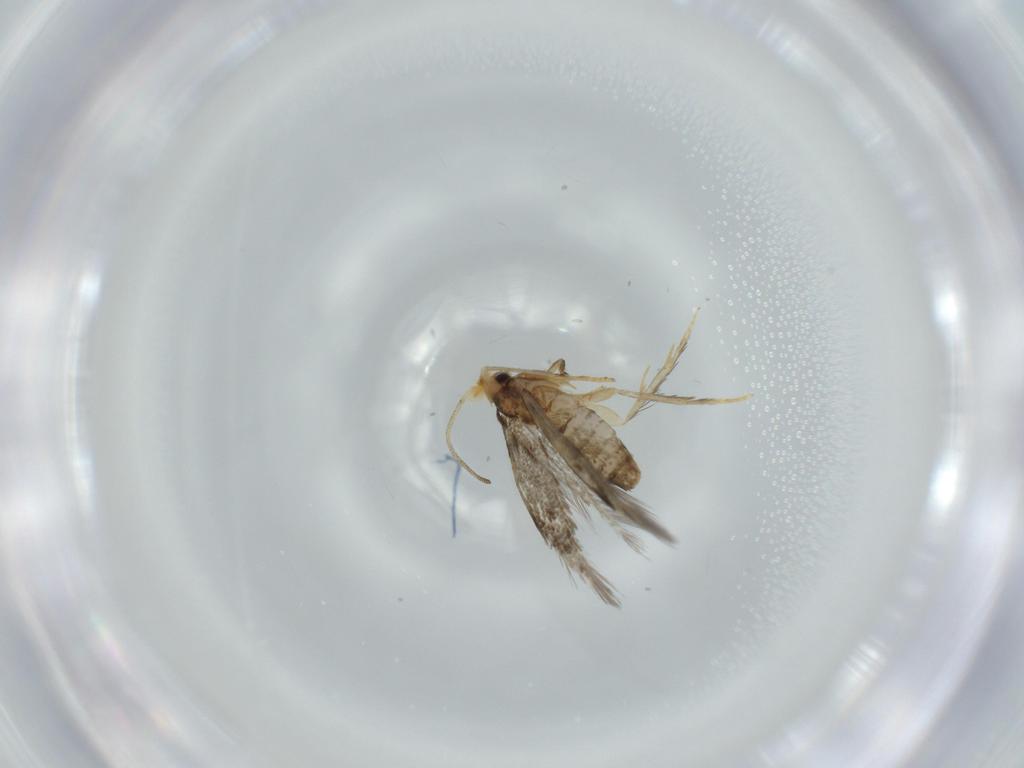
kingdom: Animalia
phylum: Arthropoda
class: Insecta
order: Lepidoptera
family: Nepticulidae
